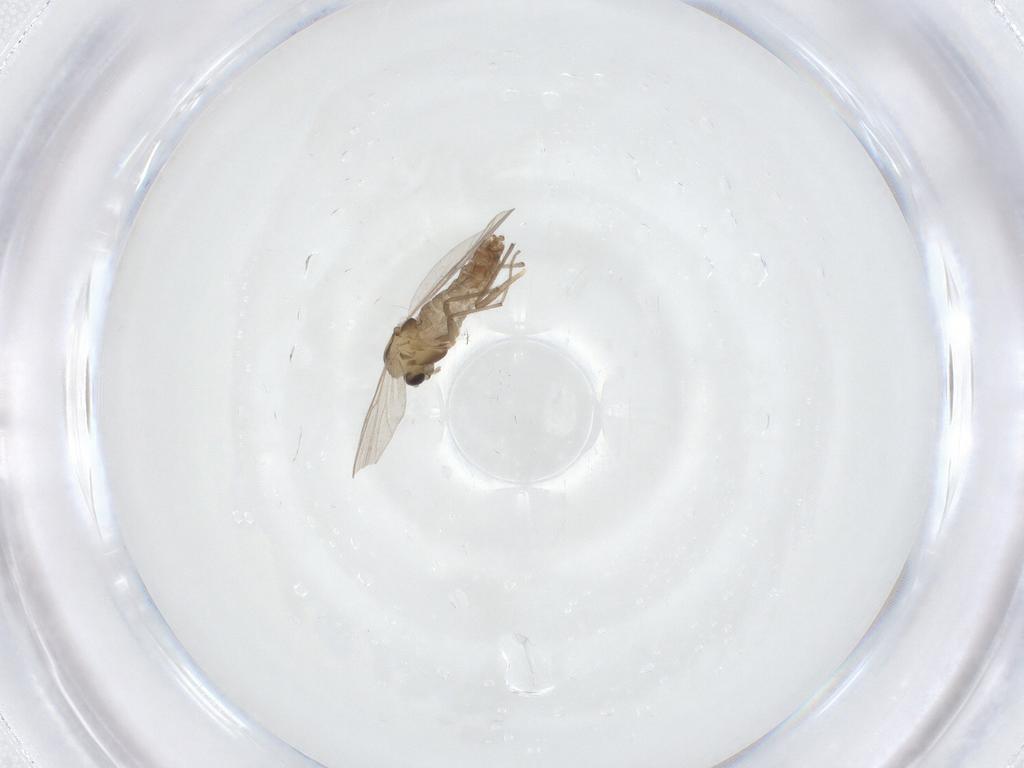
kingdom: Animalia
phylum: Arthropoda
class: Insecta
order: Diptera
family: Chironomidae
